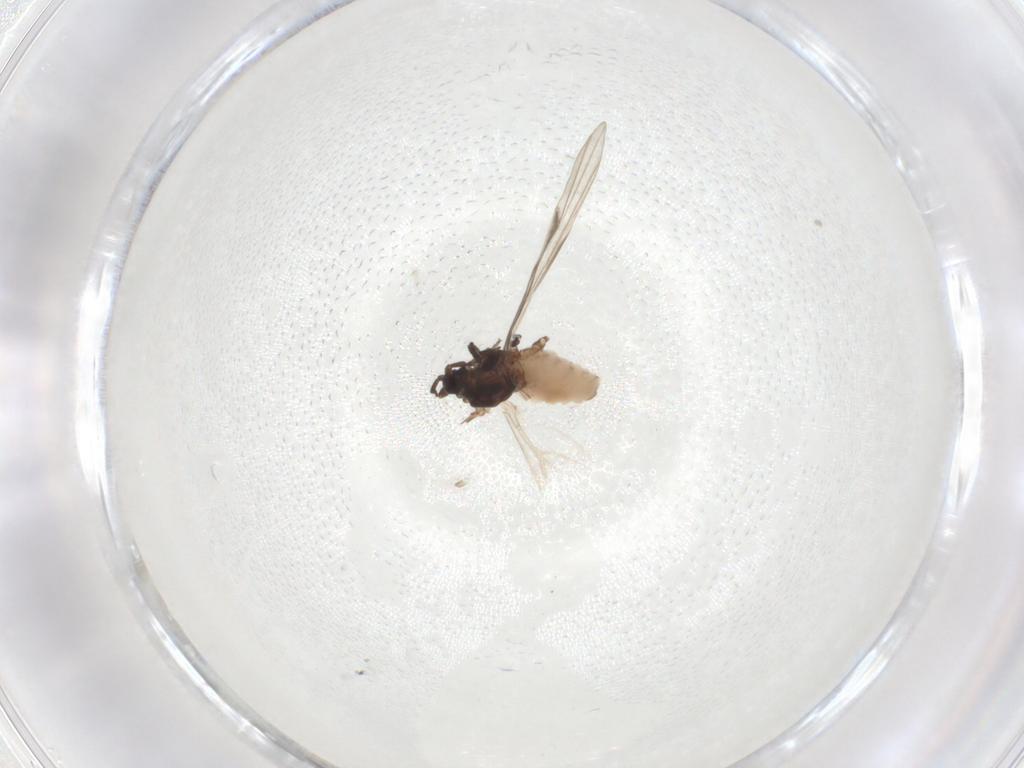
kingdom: Animalia
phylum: Arthropoda
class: Insecta
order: Hemiptera
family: Aphididae
